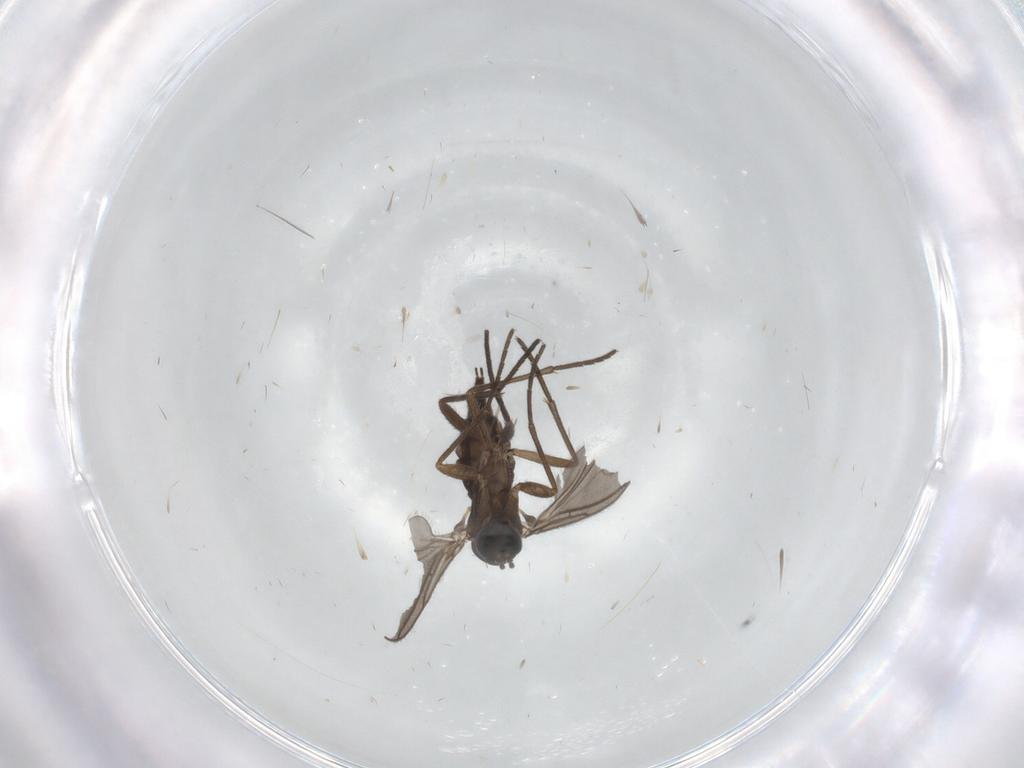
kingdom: Animalia
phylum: Arthropoda
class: Insecta
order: Diptera
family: Sciaridae
